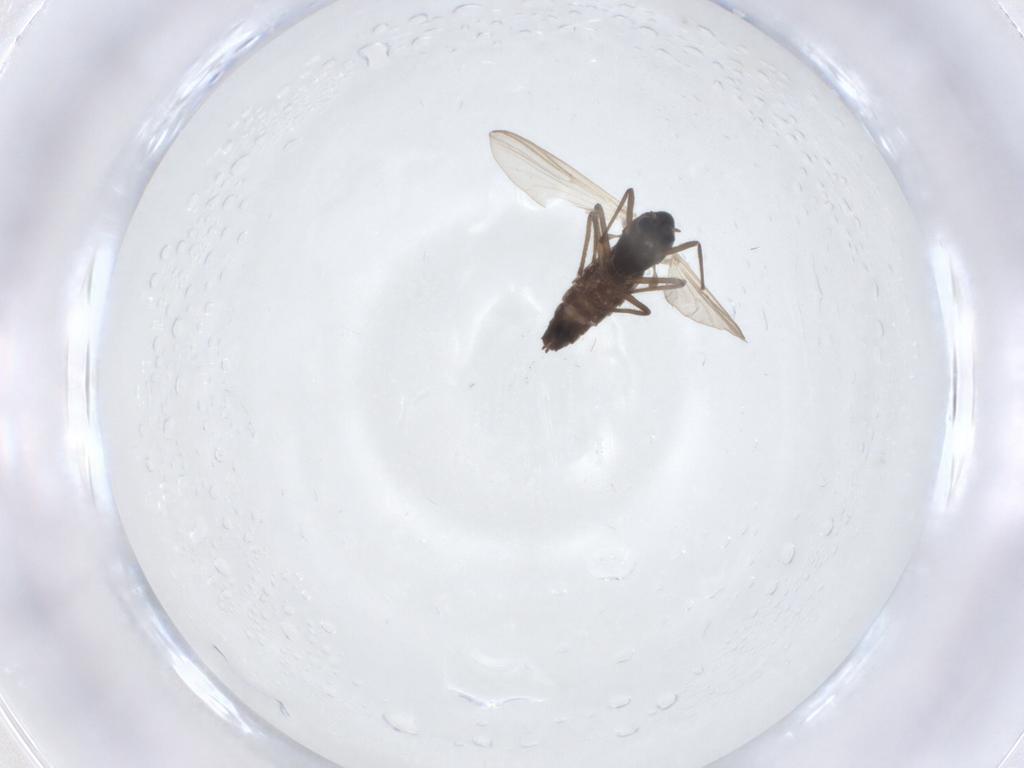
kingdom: Animalia
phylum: Arthropoda
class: Insecta
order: Diptera
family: Chironomidae
